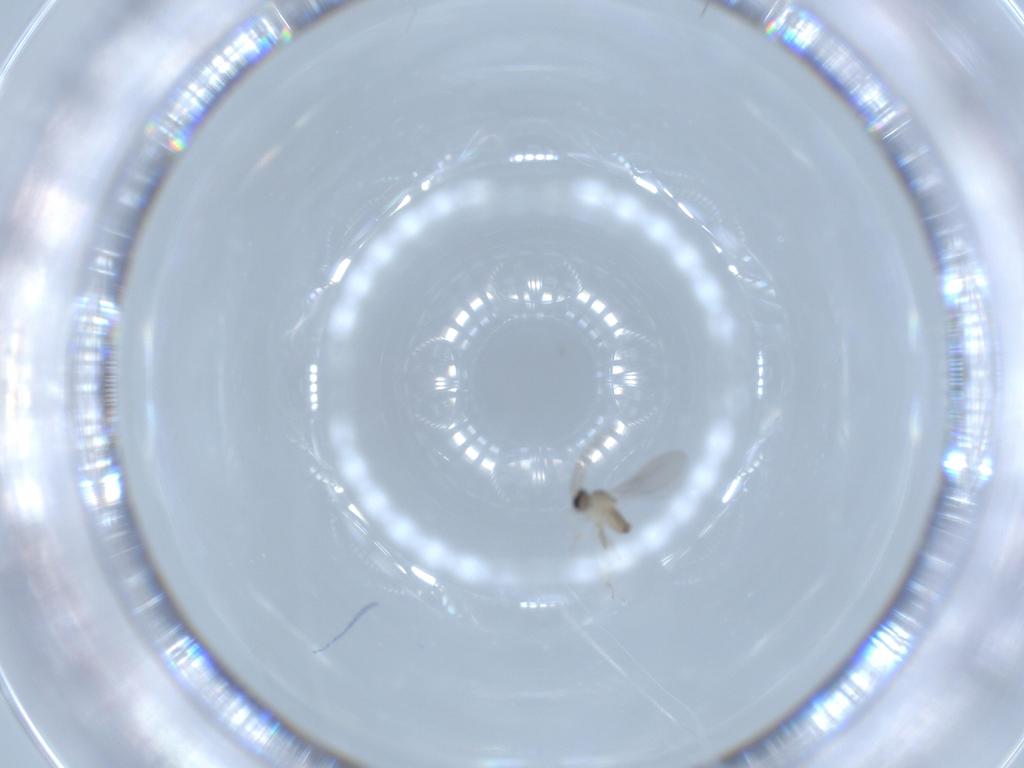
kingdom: Animalia
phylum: Arthropoda
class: Insecta
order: Diptera
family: Cecidomyiidae
